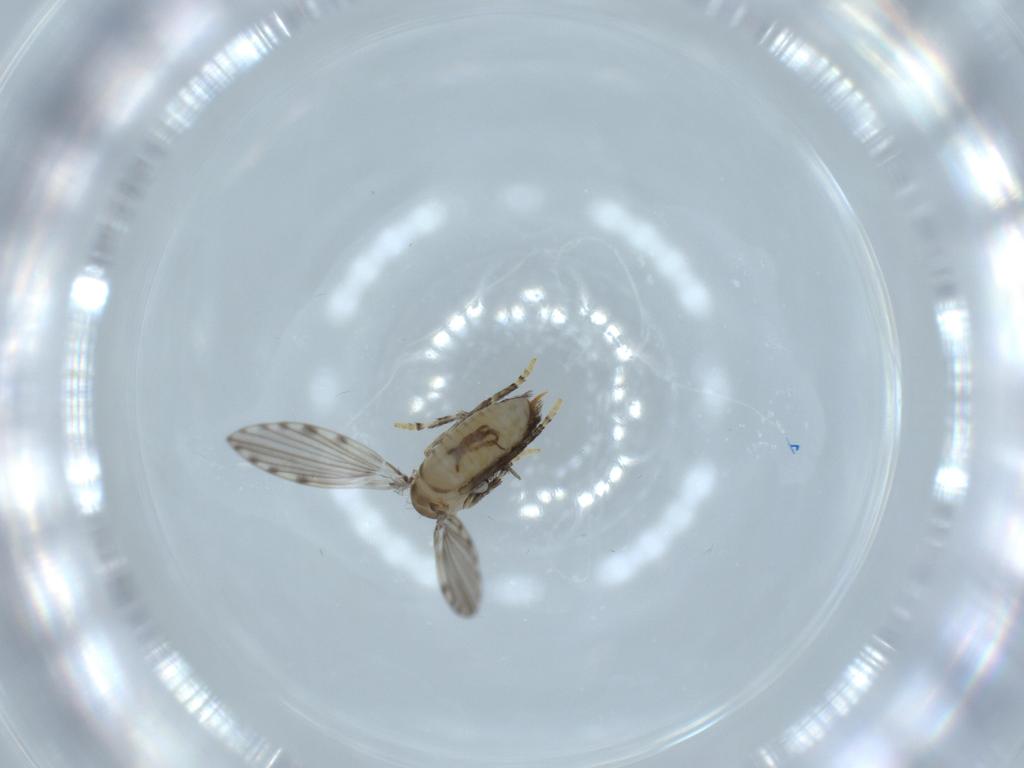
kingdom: Animalia
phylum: Arthropoda
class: Insecta
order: Diptera
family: Psychodidae
